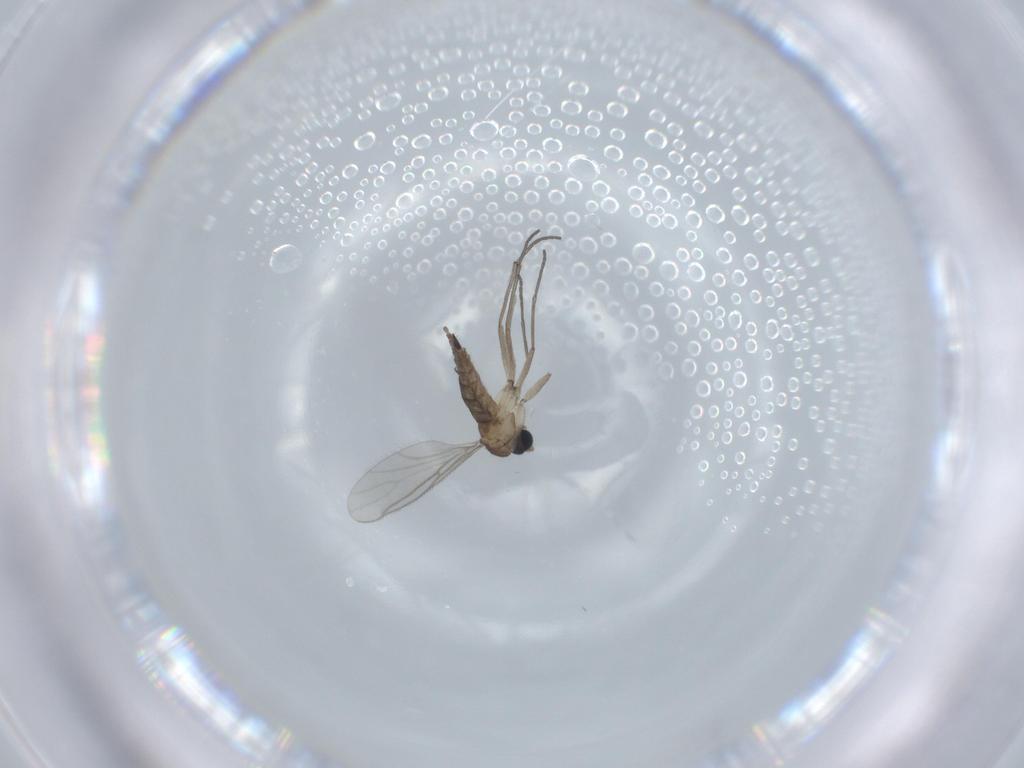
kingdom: Animalia
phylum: Arthropoda
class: Insecta
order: Diptera
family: Sciaridae
